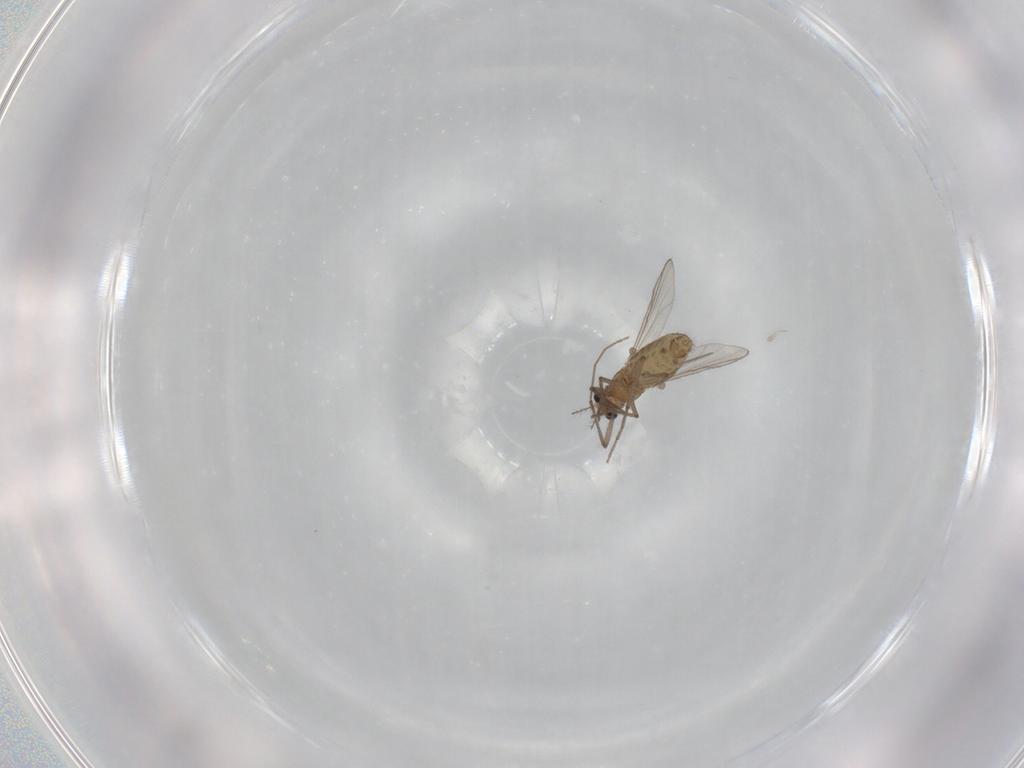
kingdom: Animalia
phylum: Arthropoda
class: Insecta
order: Diptera
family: Chironomidae
